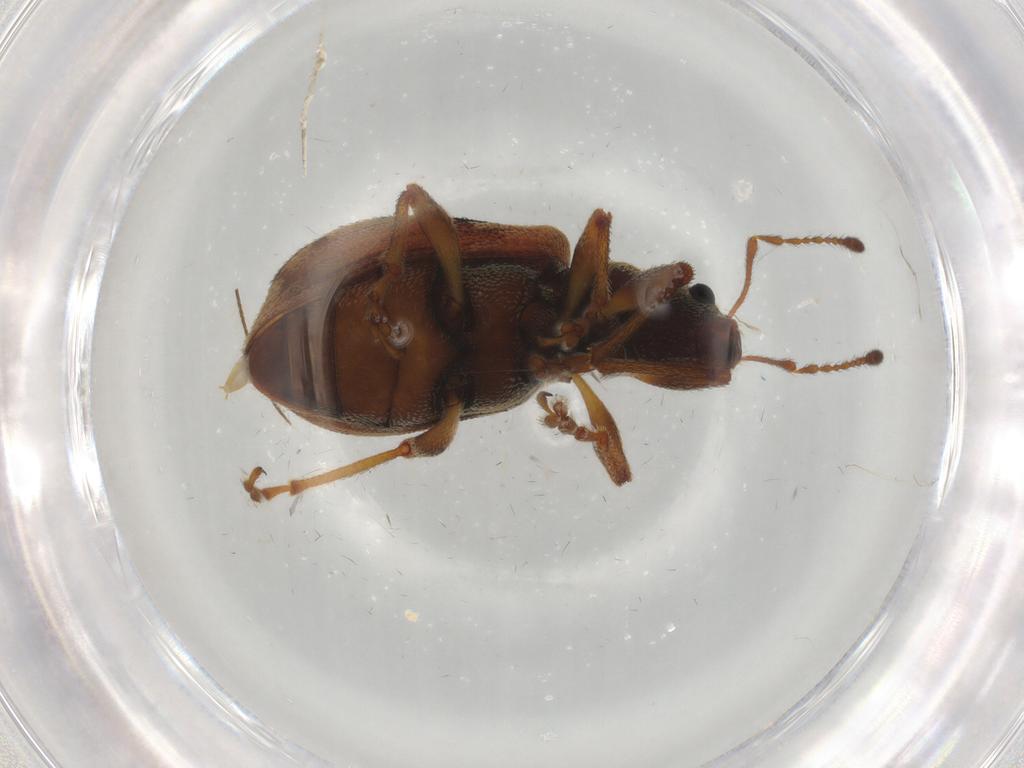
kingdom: Animalia
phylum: Arthropoda
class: Insecta
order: Coleoptera
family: Curculionidae
